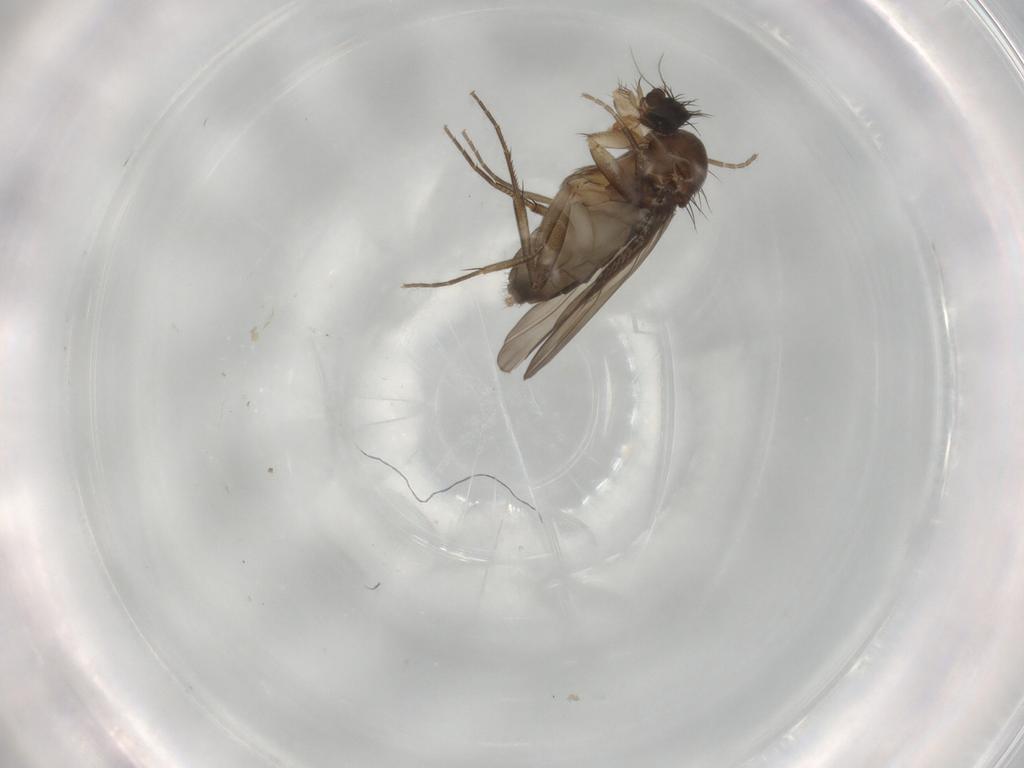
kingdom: Animalia
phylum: Arthropoda
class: Insecta
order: Diptera
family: Phoridae
